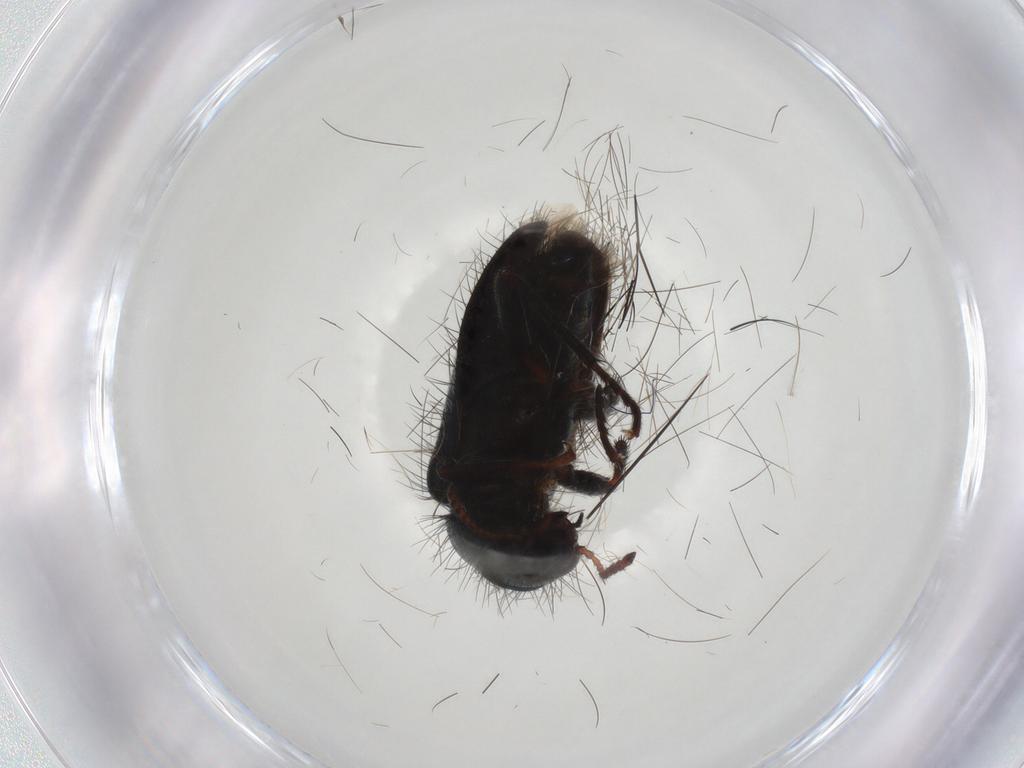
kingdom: Animalia
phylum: Arthropoda
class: Insecta
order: Coleoptera
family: Melyridae
